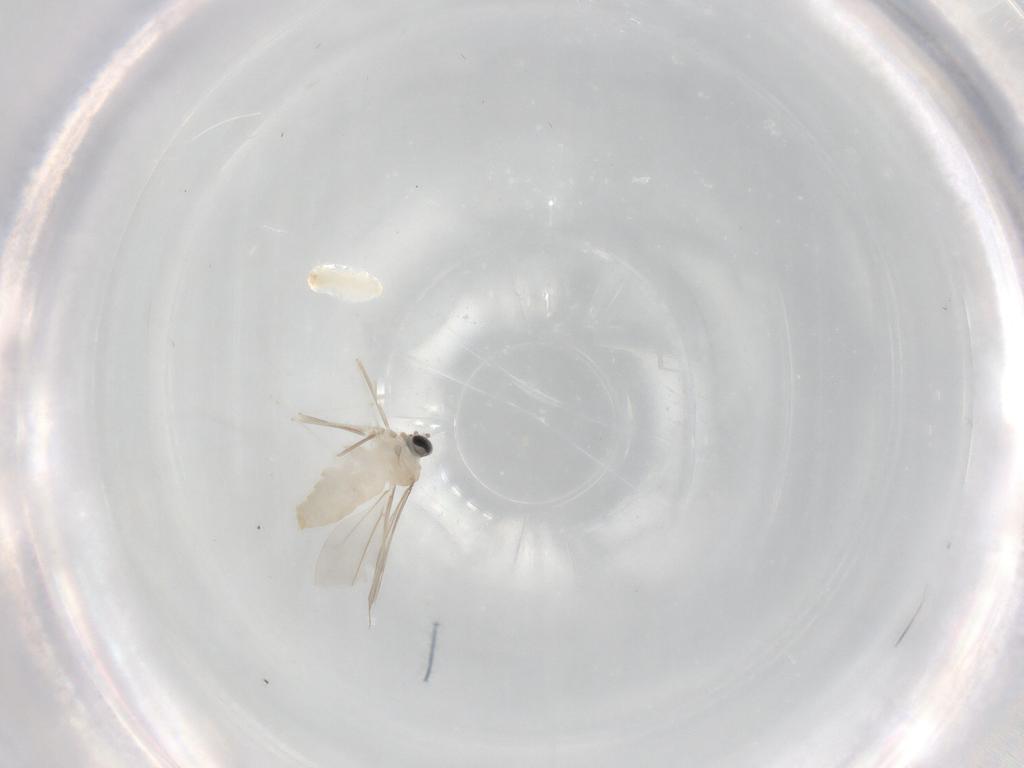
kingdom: Animalia
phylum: Arthropoda
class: Insecta
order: Diptera
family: Cecidomyiidae
